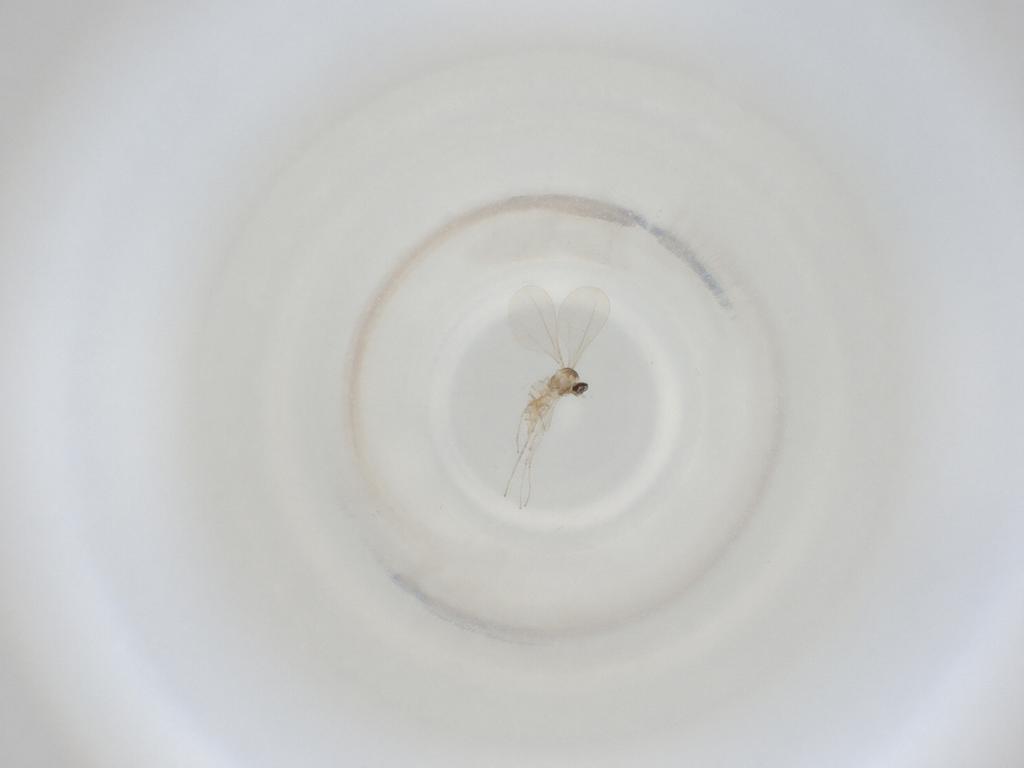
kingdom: Animalia
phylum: Arthropoda
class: Insecta
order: Diptera
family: Cecidomyiidae
